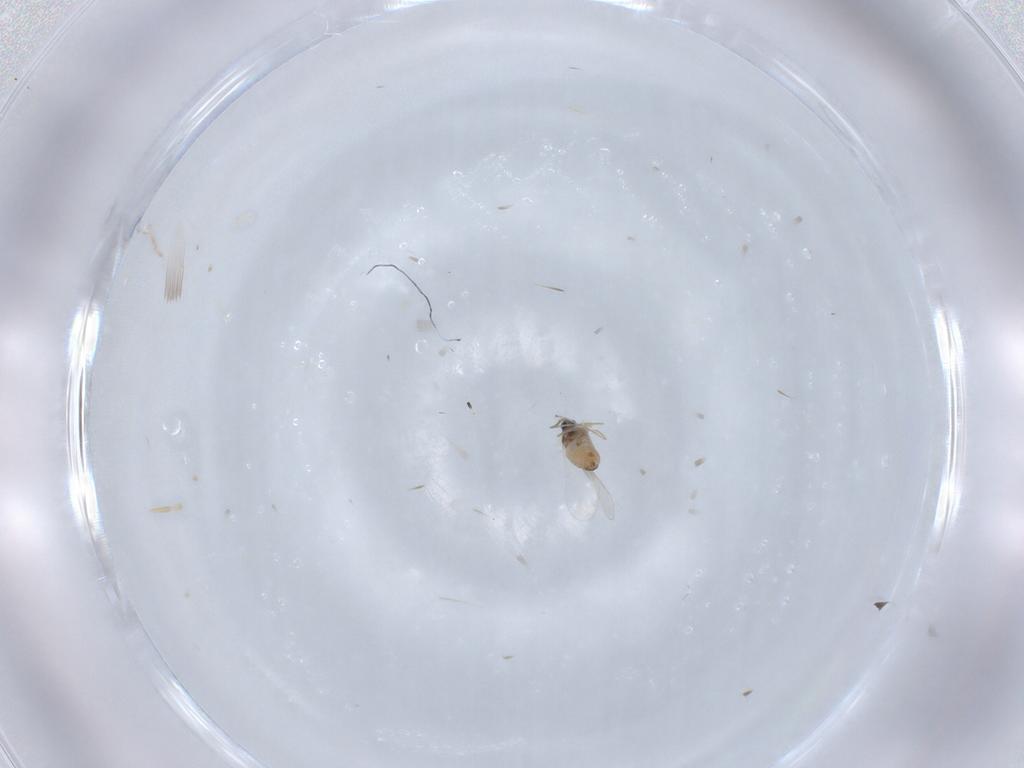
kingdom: Animalia
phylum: Arthropoda
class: Insecta
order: Diptera
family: Cecidomyiidae
